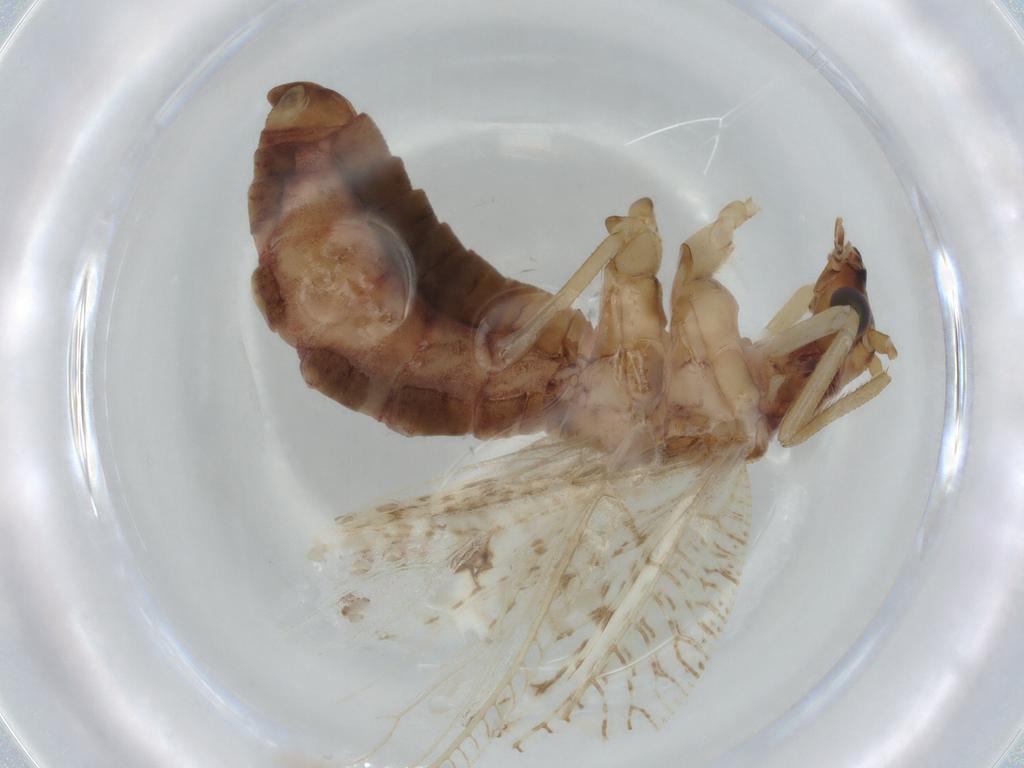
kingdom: Animalia
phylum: Arthropoda
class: Insecta
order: Neuroptera
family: Hemerobiidae
